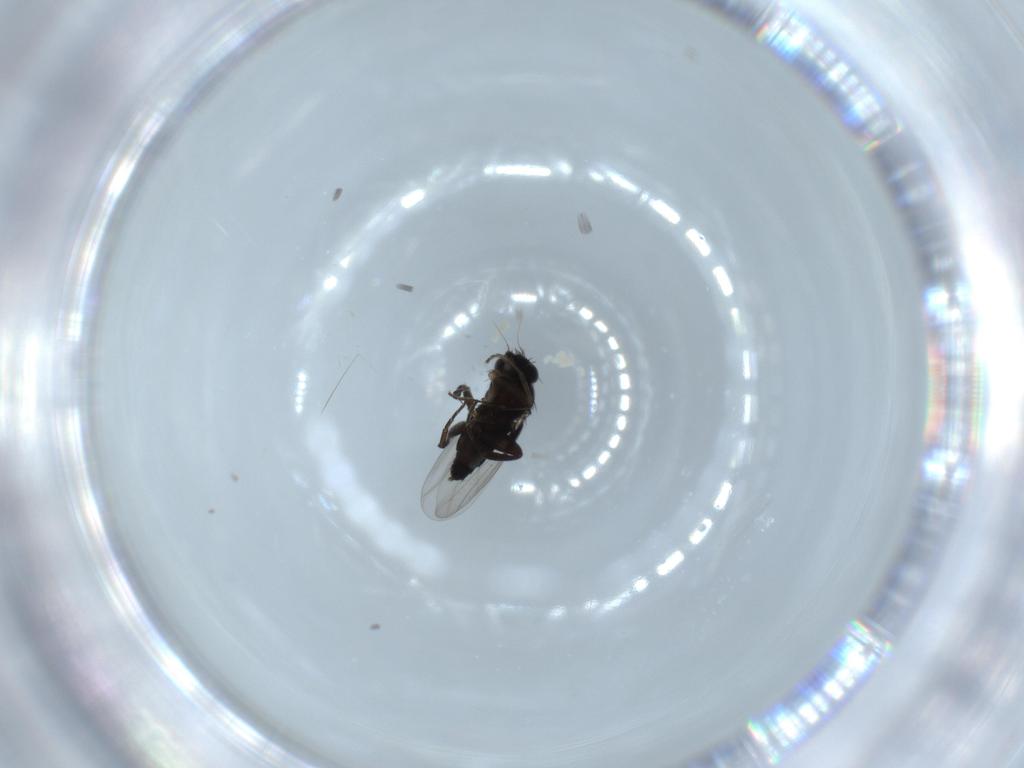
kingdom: Animalia
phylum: Arthropoda
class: Insecta
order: Diptera
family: Phoridae
